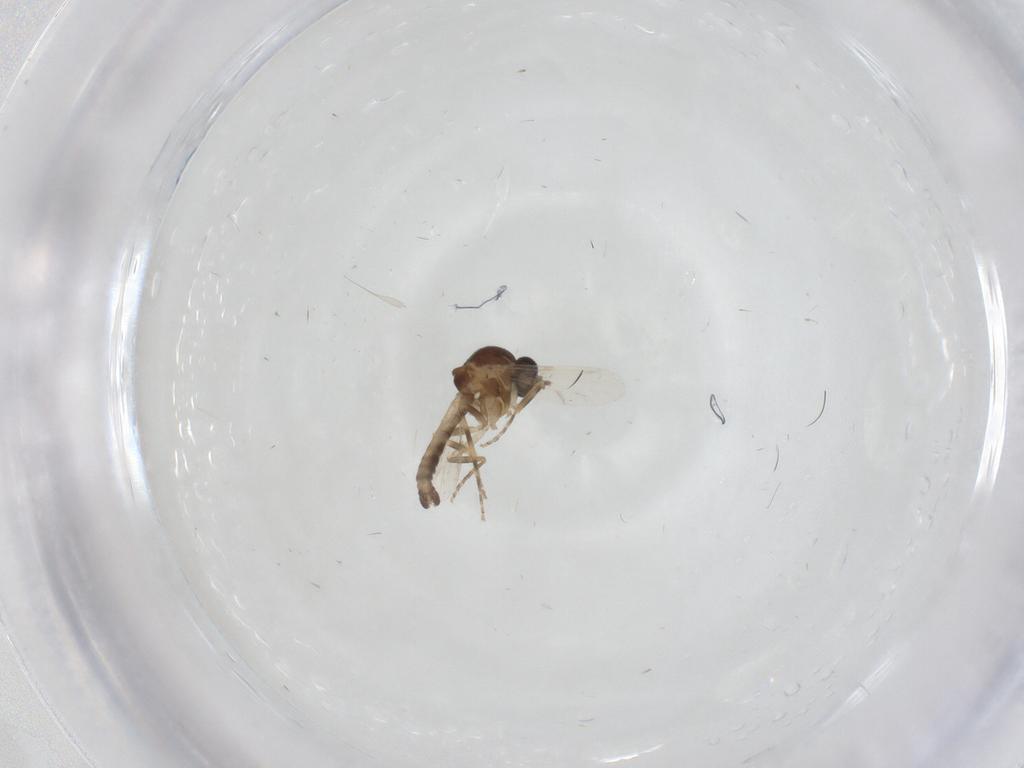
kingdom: Animalia
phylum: Arthropoda
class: Insecta
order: Diptera
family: Ceratopogonidae
